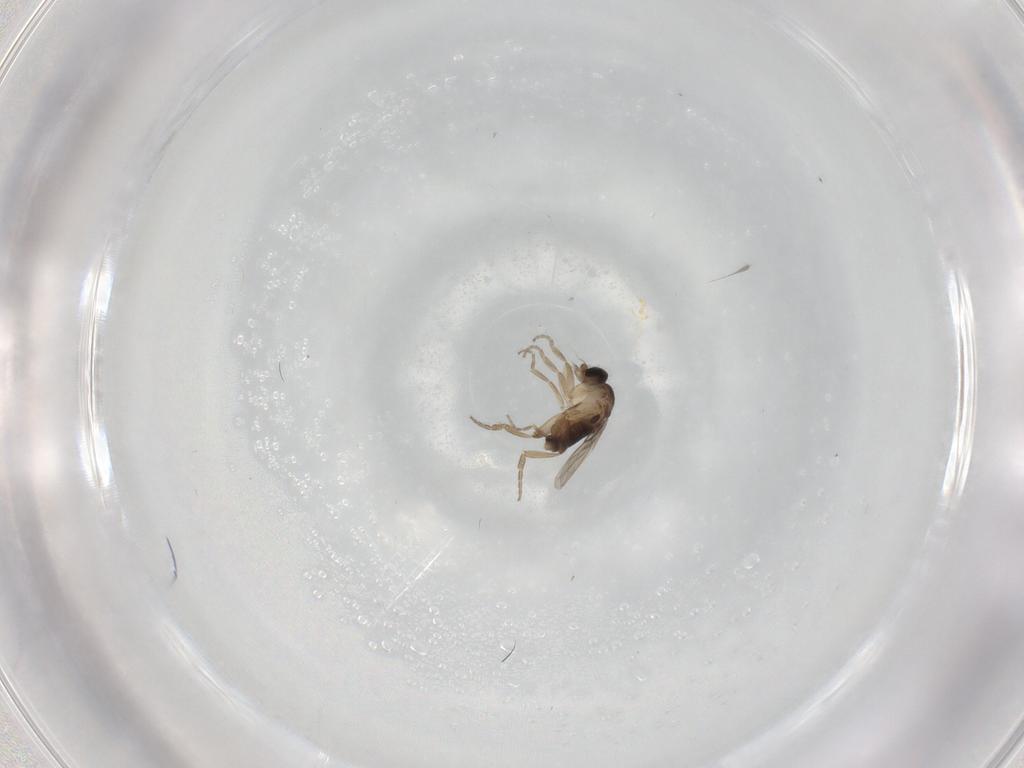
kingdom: Animalia
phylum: Arthropoda
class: Insecta
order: Diptera
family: Phoridae
